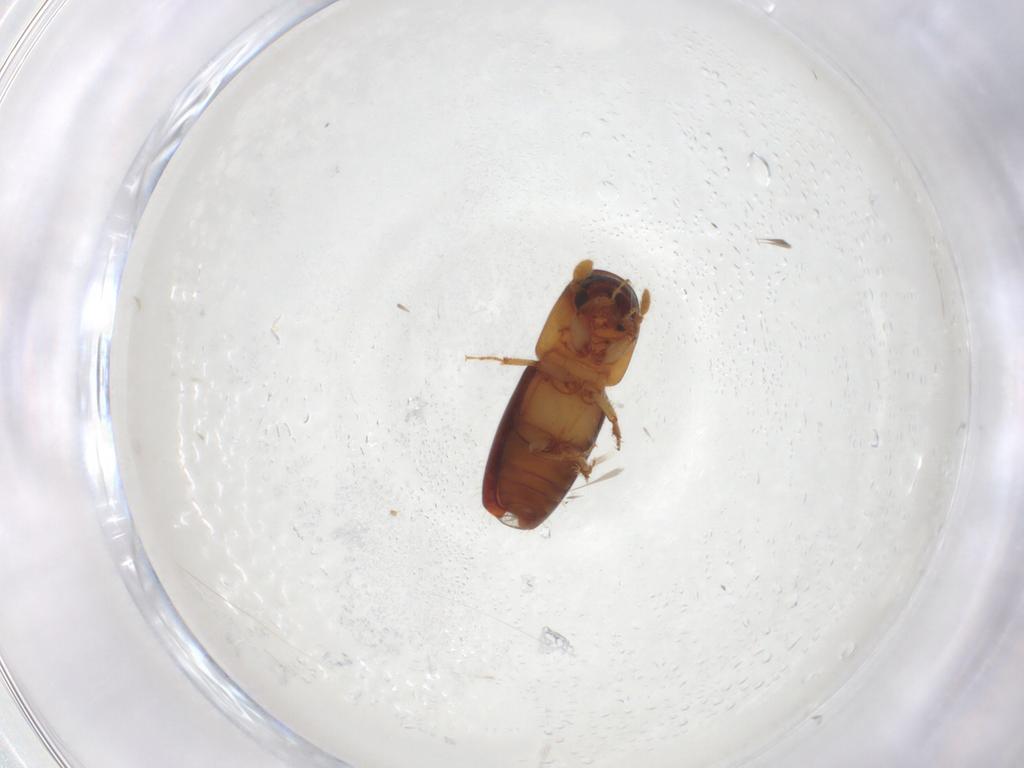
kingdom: Animalia
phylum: Arthropoda
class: Insecta
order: Coleoptera
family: Curculionidae
